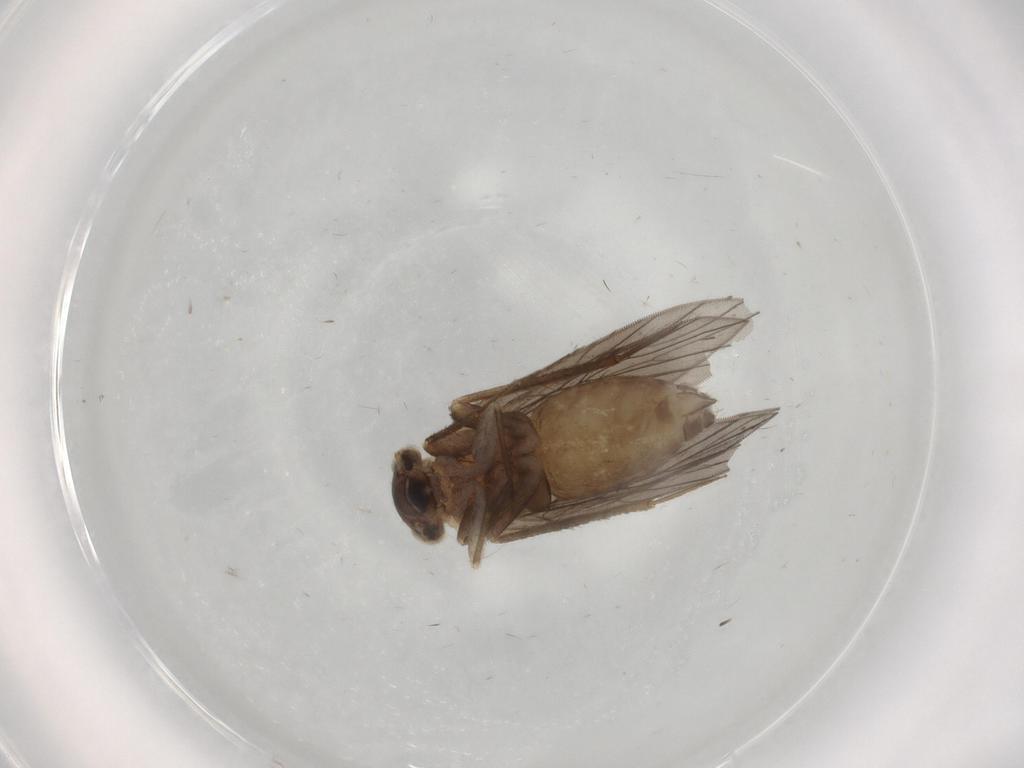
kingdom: Animalia
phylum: Arthropoda
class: Insecta
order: Psocodea
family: Lepidopsocidae
